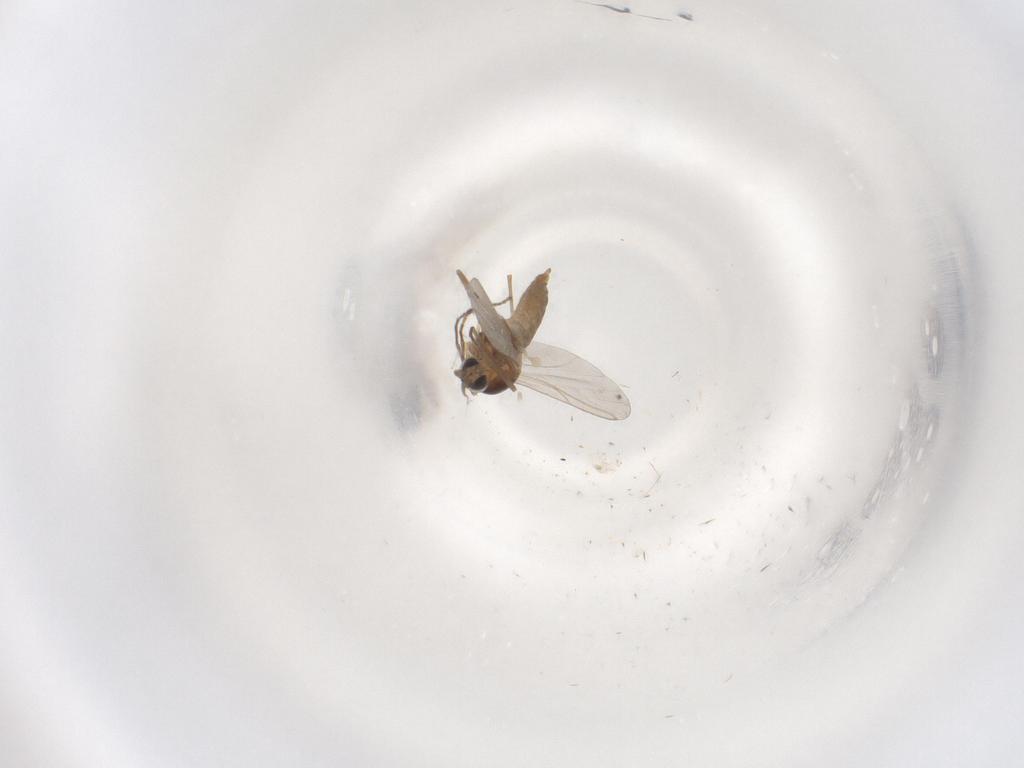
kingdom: Animalia
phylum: Arthropoda
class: Insecta
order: Diptera
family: Cecidomyiidae
